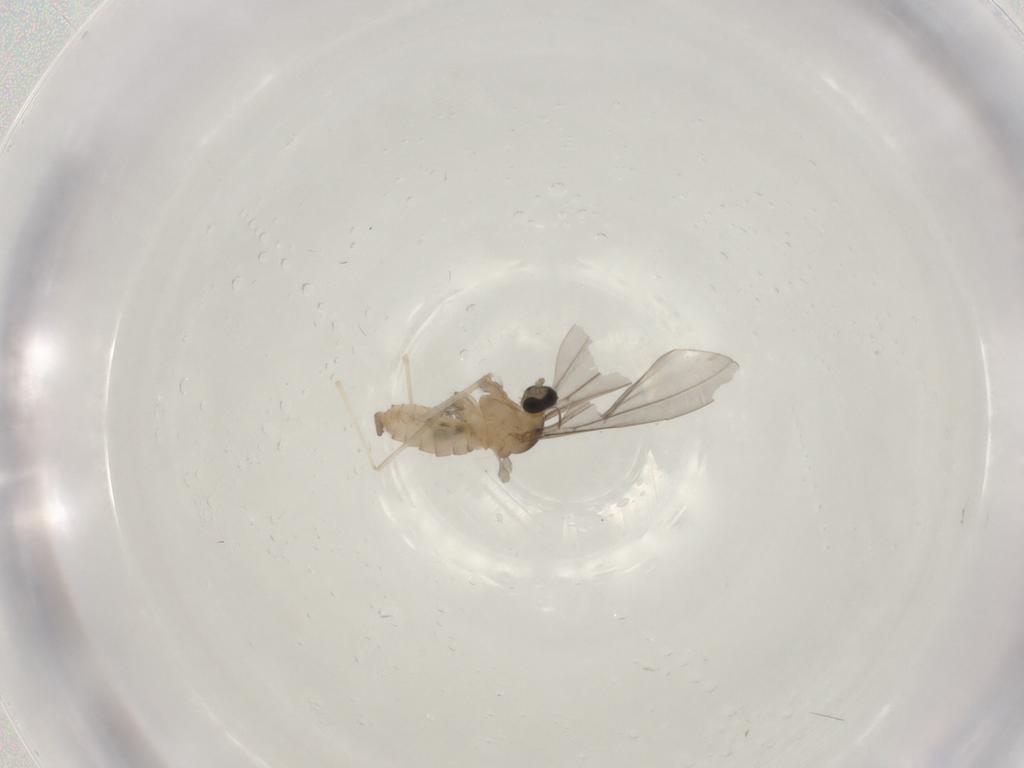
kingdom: Animalia
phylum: Arthropoda
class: Insecta
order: Diptera
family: Cecidomyiidae
